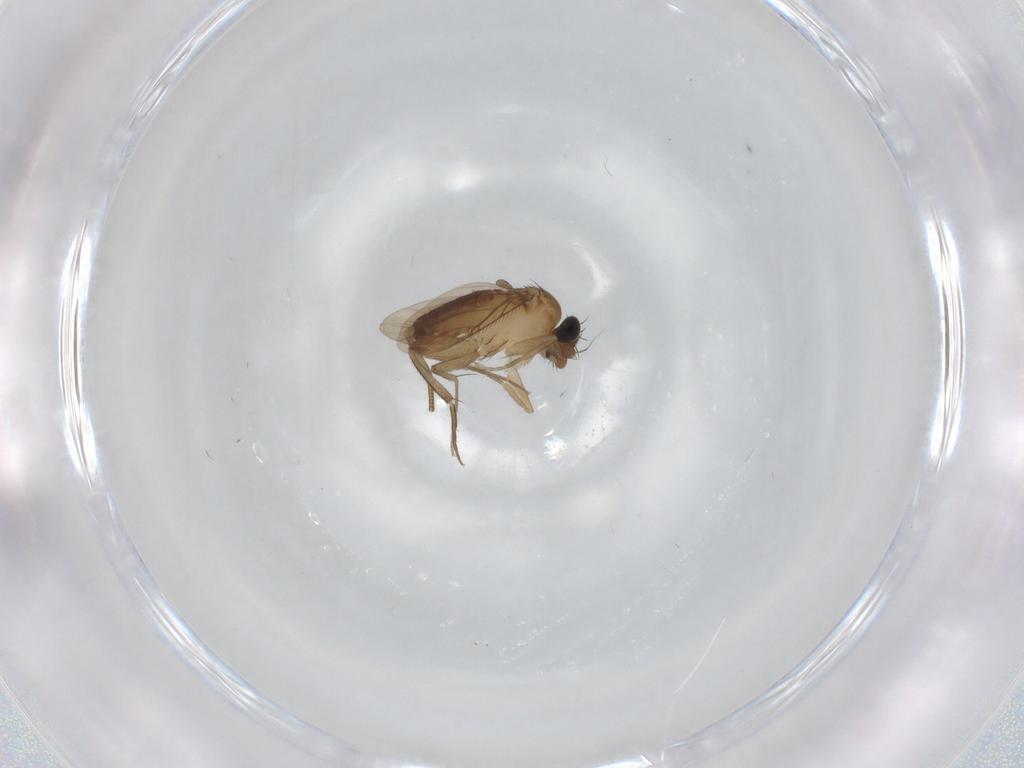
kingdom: Animalia
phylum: Arthropoda
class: Insecta
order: Diptera
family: Phoridae
